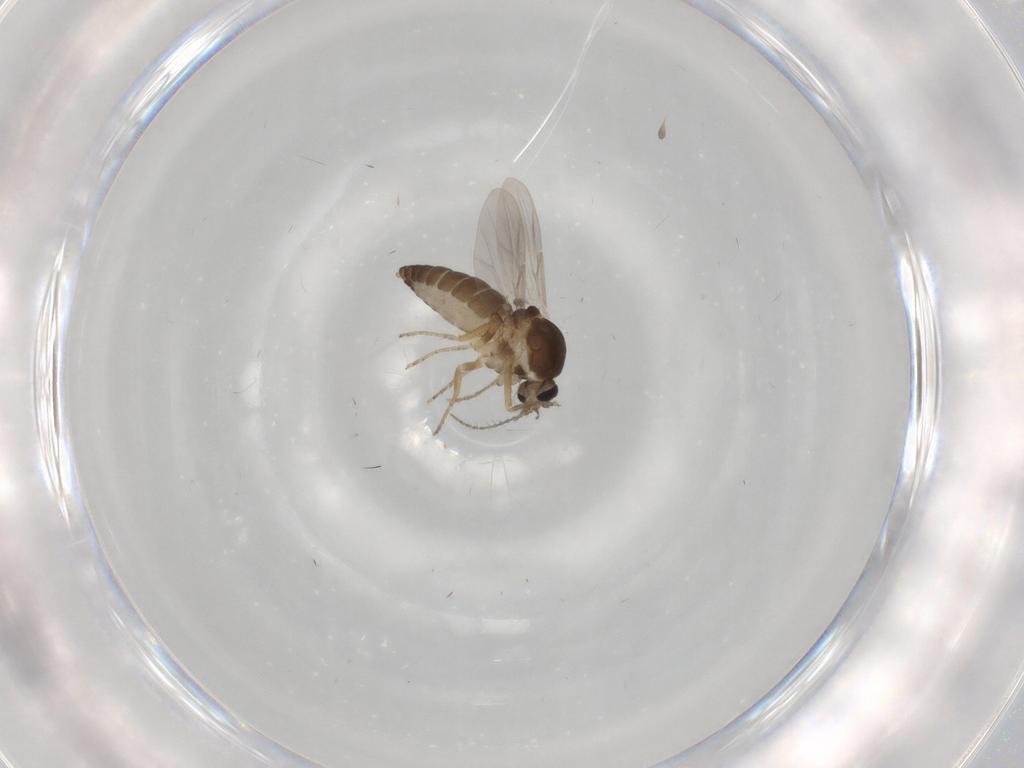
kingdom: Animalia
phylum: Arthropoda
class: Insecta
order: Diptera
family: Ceratopogonidae
